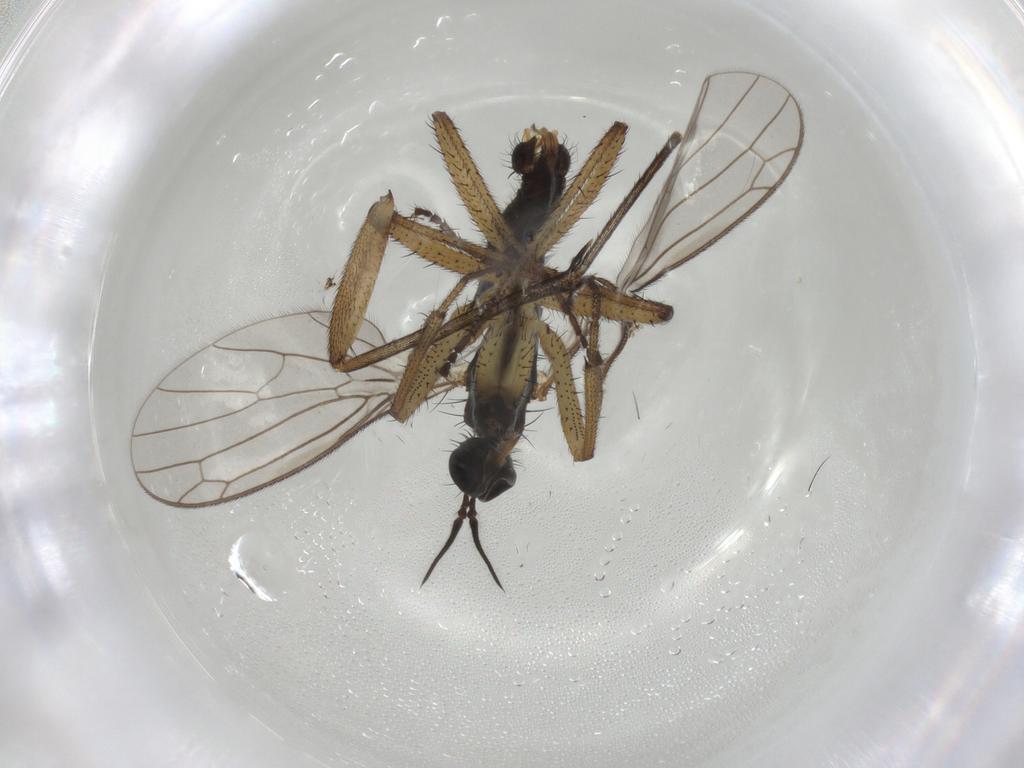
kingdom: Animalia
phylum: Arthropoda
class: Insecta
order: Diptera
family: Empididae
